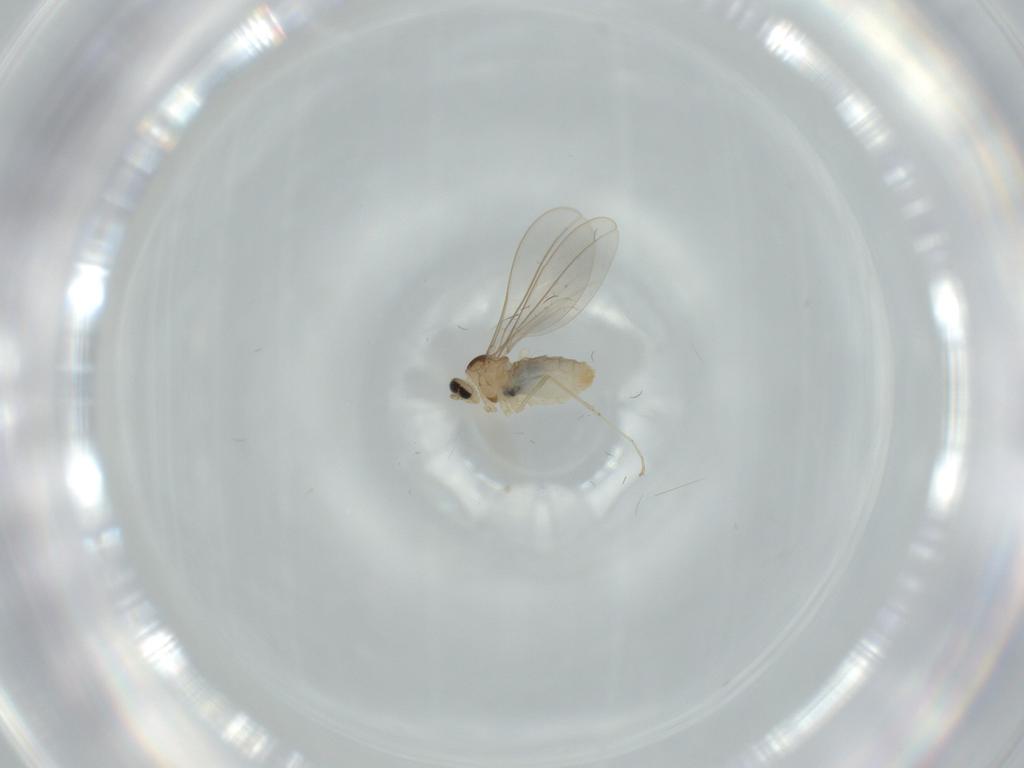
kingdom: Animalia
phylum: Arthropoda
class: Insecta
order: Diptera
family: Cecidomyiidae
